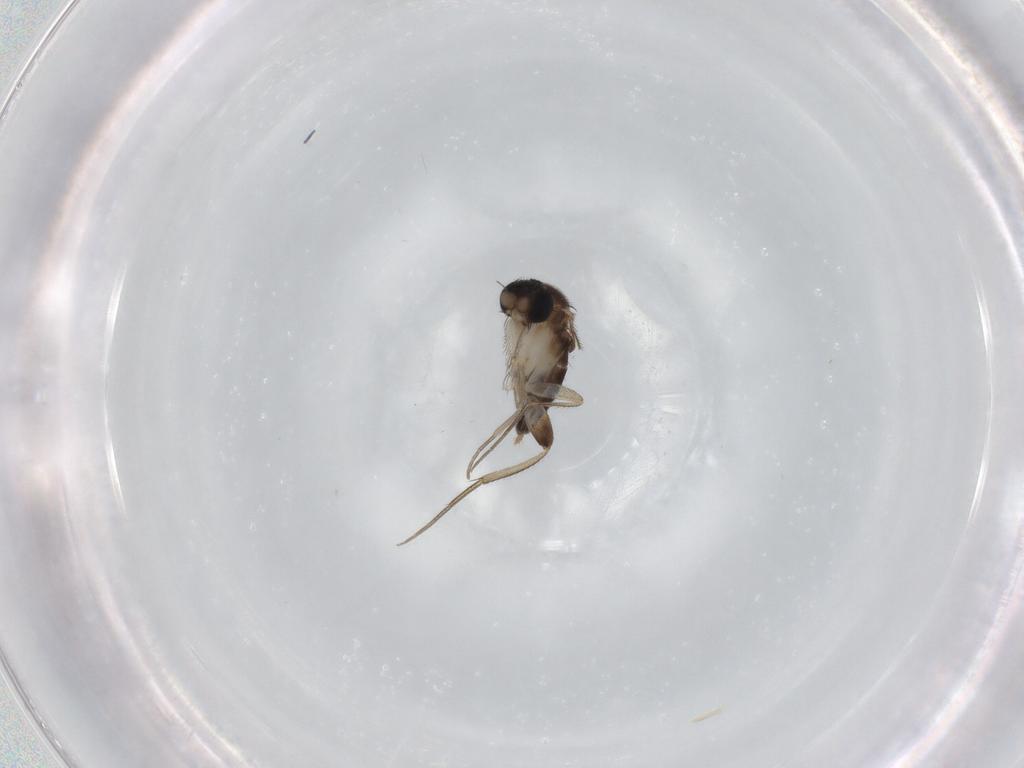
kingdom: Animalia
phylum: Arthropoda
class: Insecta
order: Diptera
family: Phoridae
